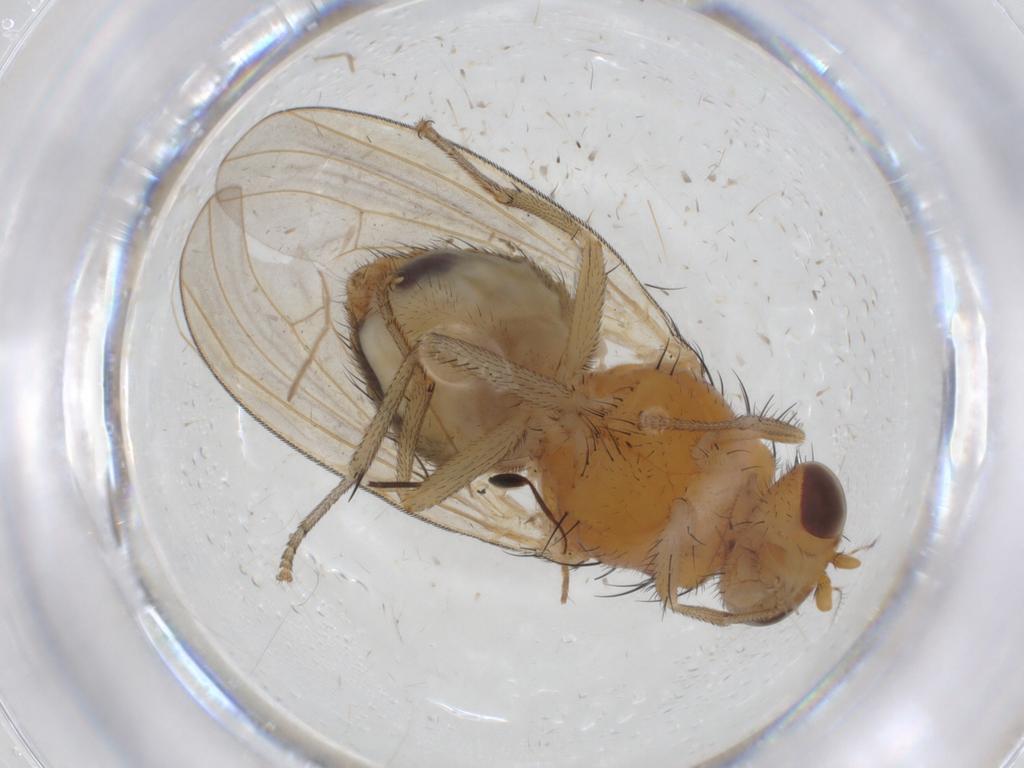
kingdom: Animalia
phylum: Arthropoda
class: Insecta
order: Diptera
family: Mycetophilidae
